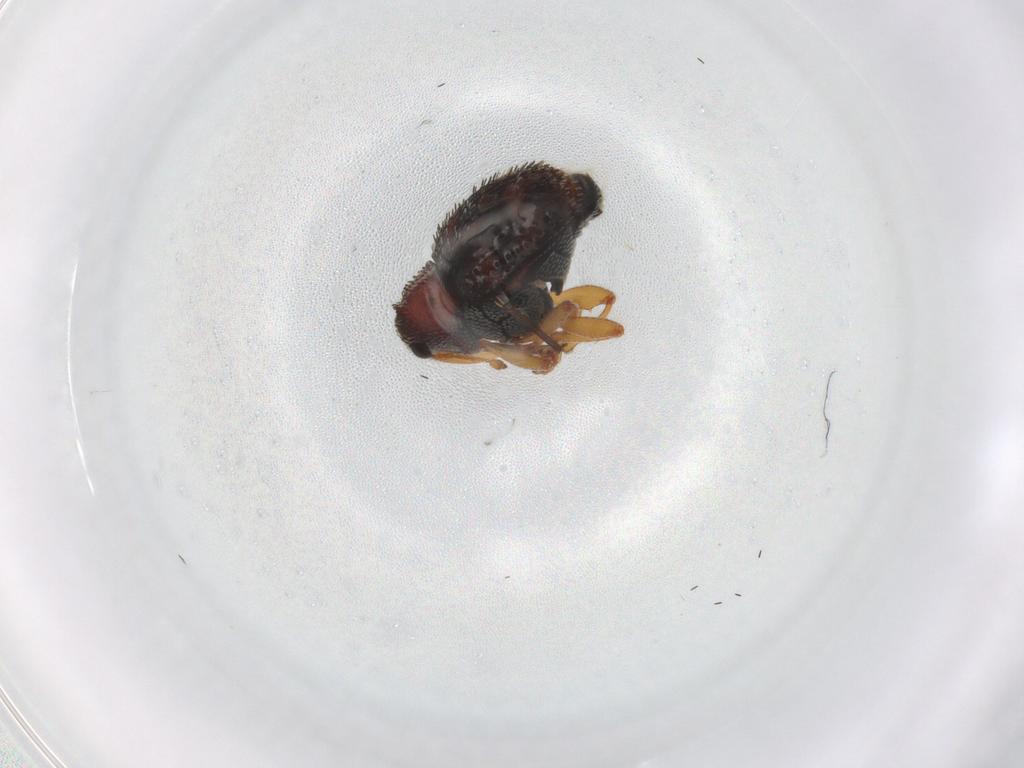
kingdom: Animalia
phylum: Arthropoda
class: Insecta
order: Coleoptera
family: Curculionidae
